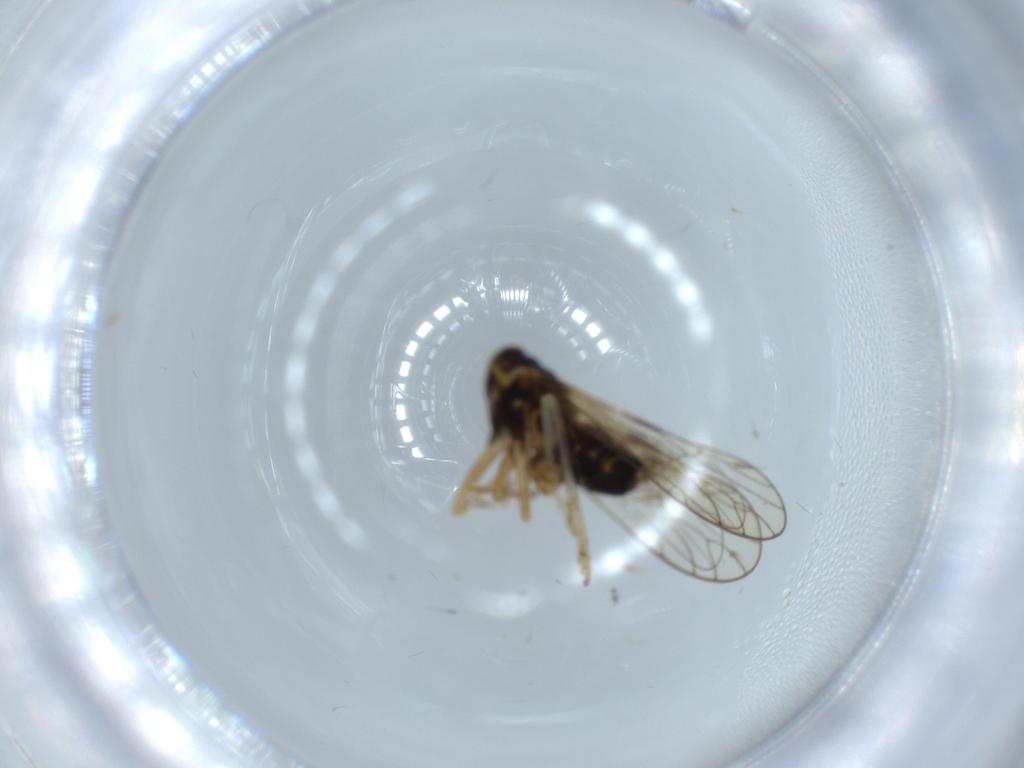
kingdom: Animalia
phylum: Arthropoda
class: Insecta
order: Diptera
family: Cecidomyiidae
